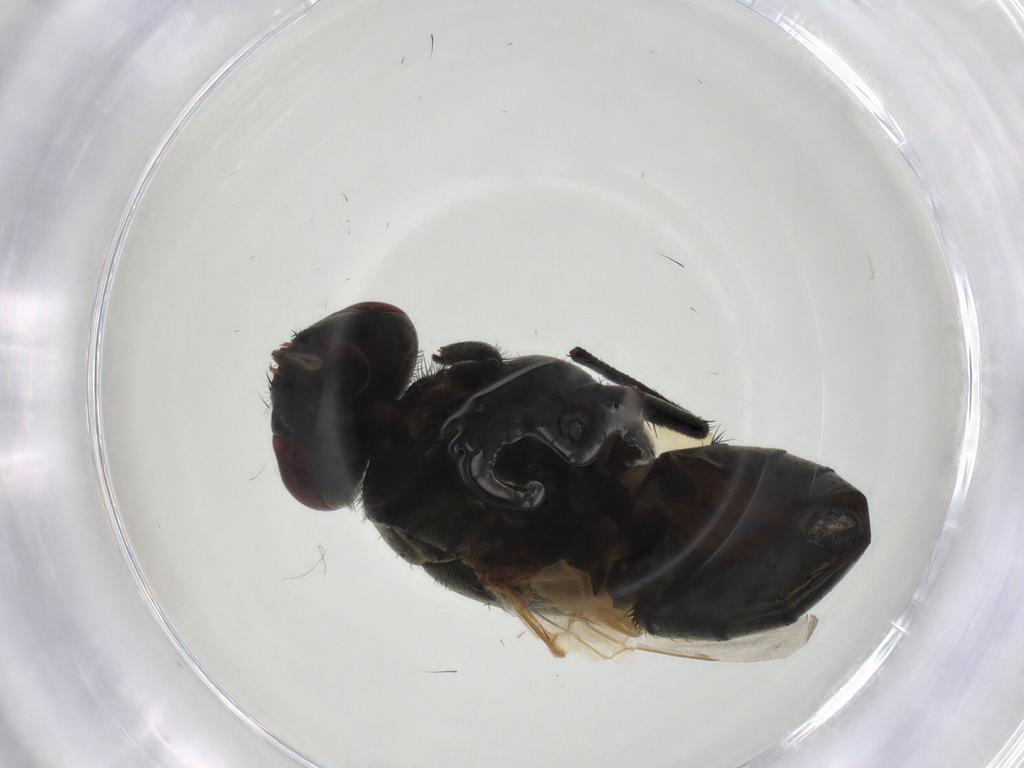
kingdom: Animalia
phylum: Arthropoda
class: Insecta
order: Diptera
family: Muscidae
